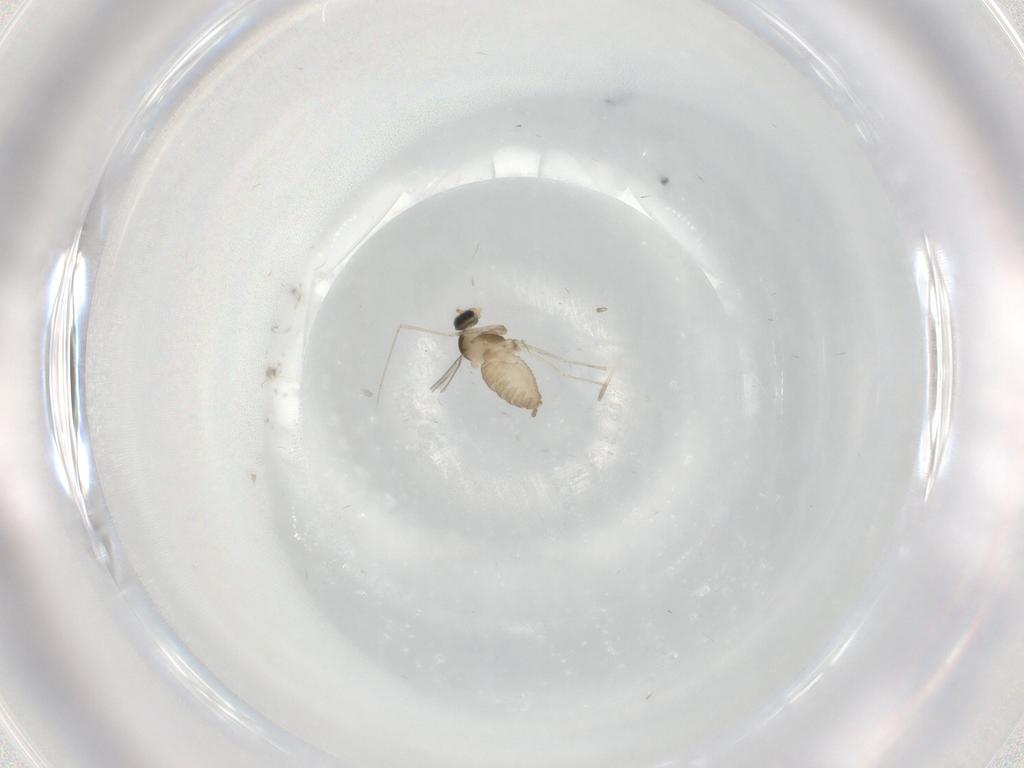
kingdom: Animalia
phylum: Arthropoda
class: Insecta
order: Diptera
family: Cecidomyiidae
